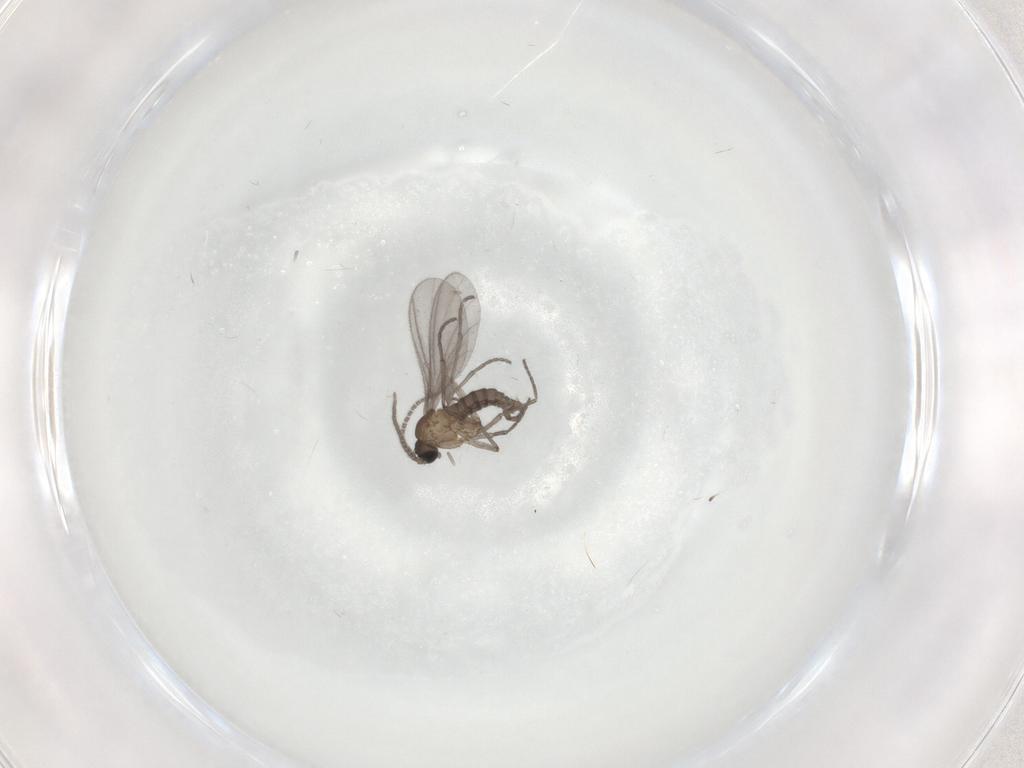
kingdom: Animalia
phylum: Arthropoda
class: Insecta
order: Diptera
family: Sciaridae
